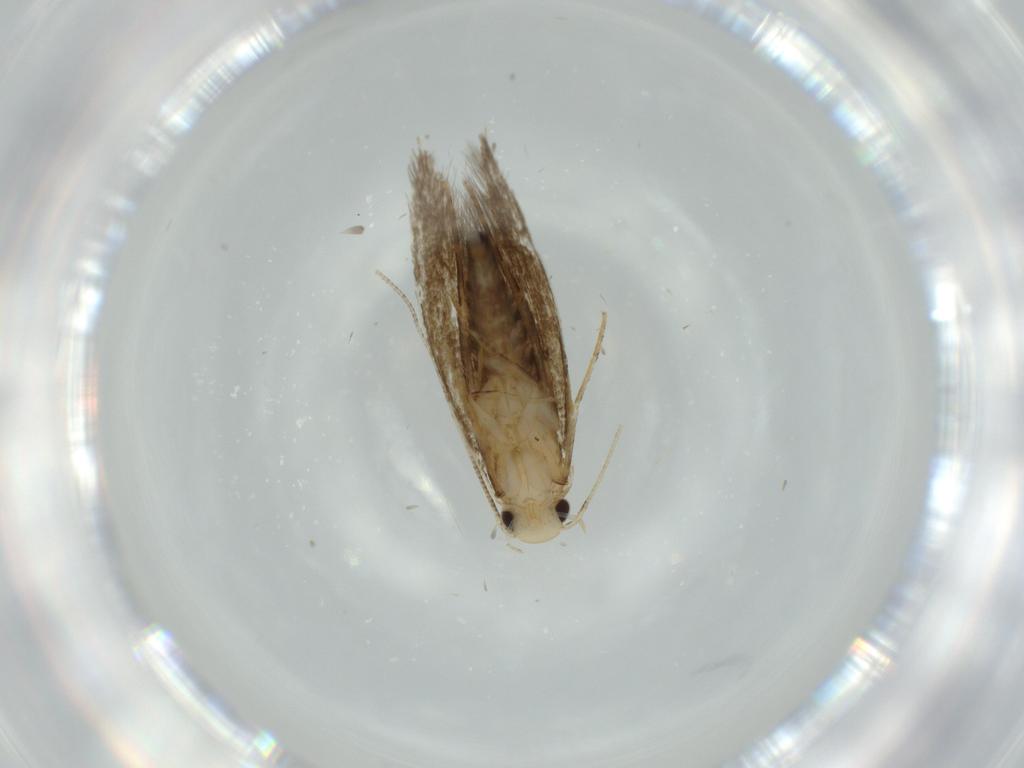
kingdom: Animalia
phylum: Arthropoda
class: Insecta
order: Lepidoptera
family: Tineidae
